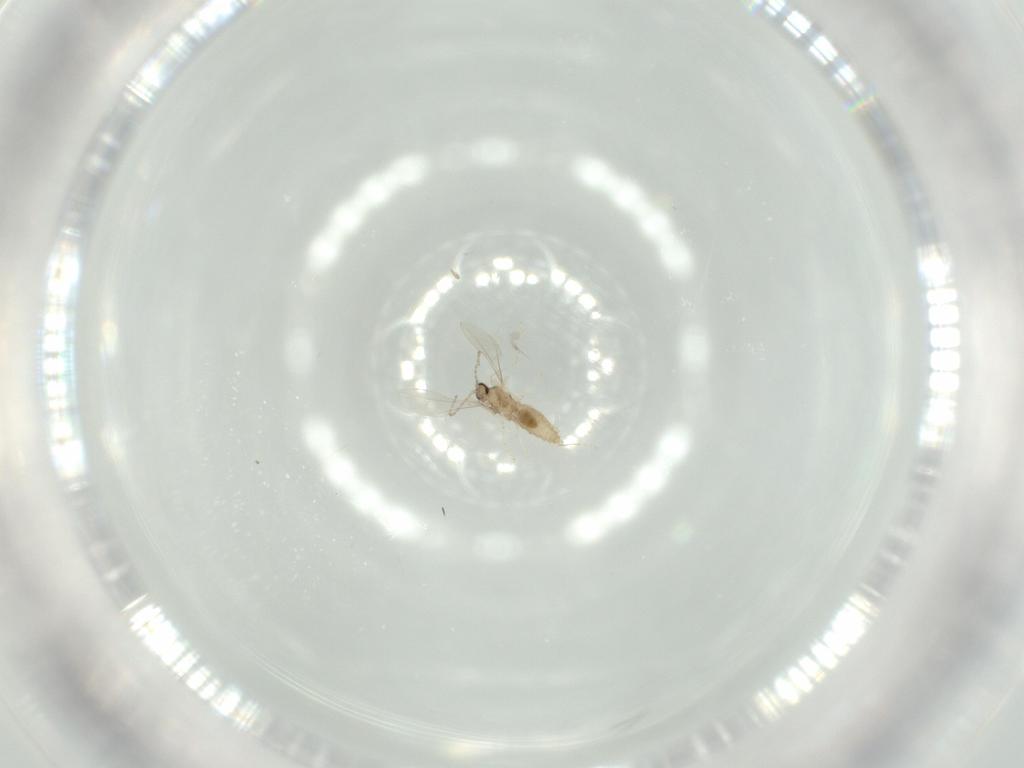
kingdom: Animalia
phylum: Arthropoda
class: Insecta
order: Diptera
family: Cecidomyiidae
